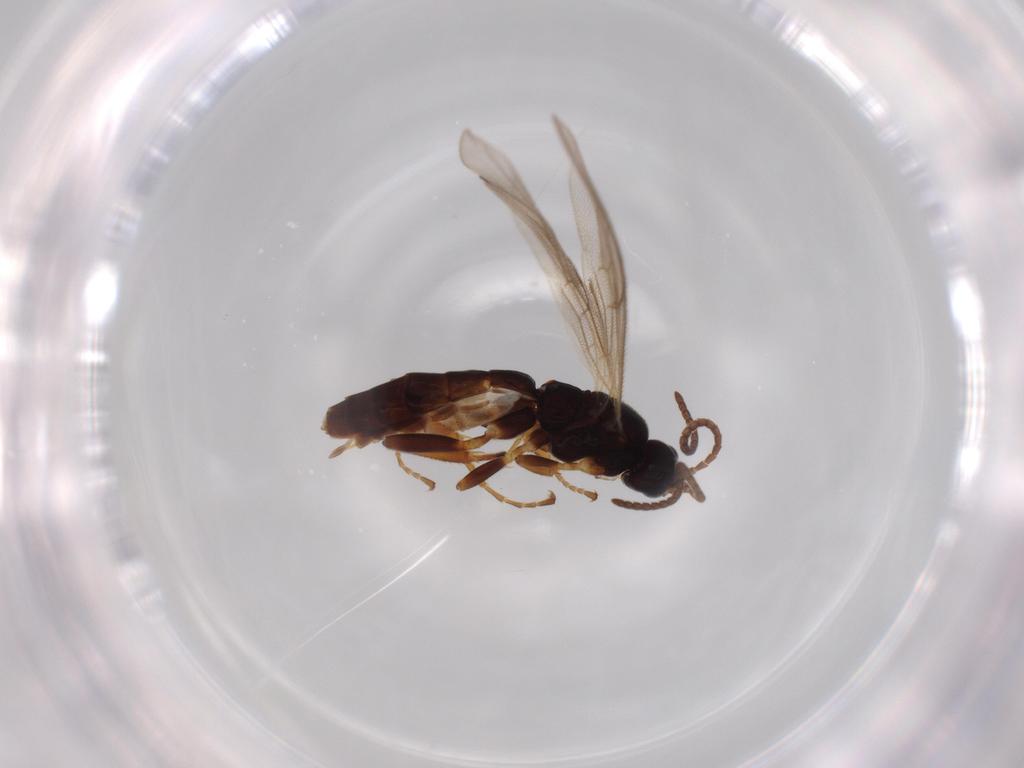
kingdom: Animalia
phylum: Arthropoda
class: Insecta
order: Hymenoptera
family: Ichneumonidae
